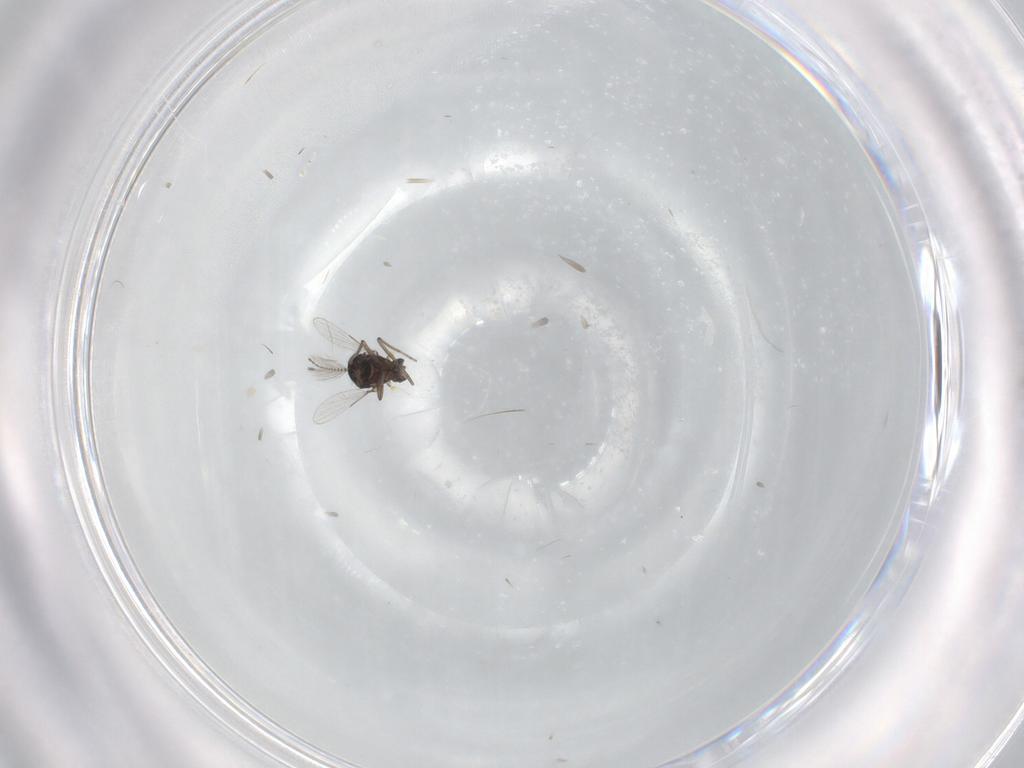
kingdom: Animalia
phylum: Arthropoda
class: Insecta
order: Diptera
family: Ceratopogonidae
